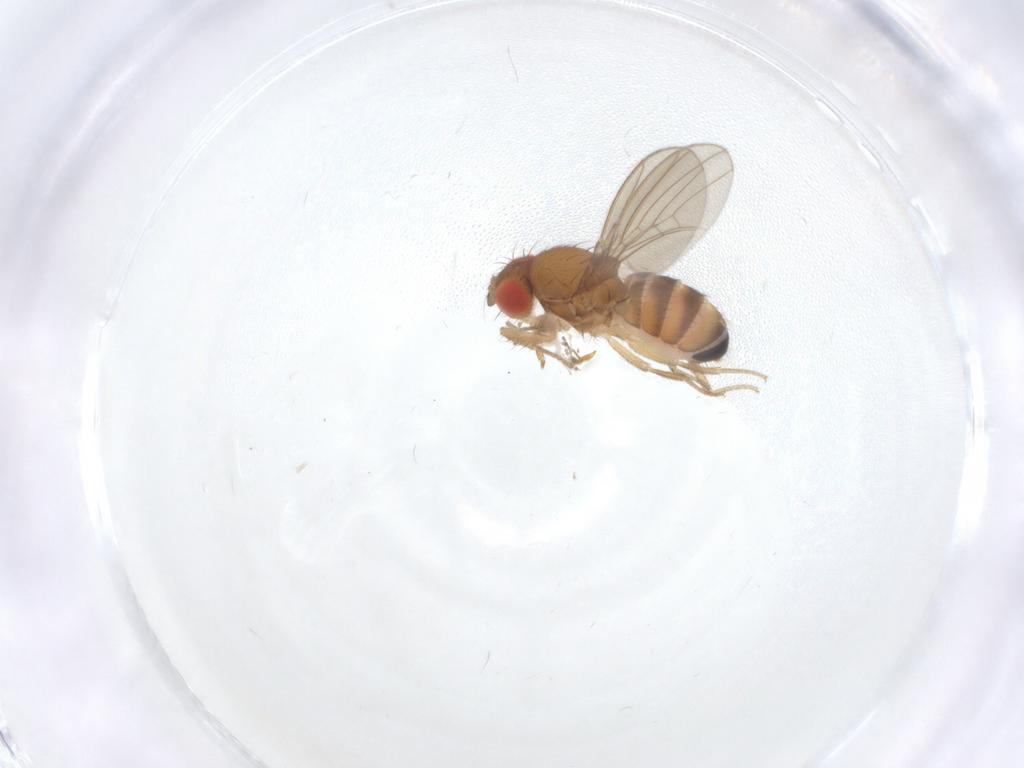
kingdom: Animalia
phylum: Arthropoda
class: Insecta
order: Diptera
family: Drosophilidae
